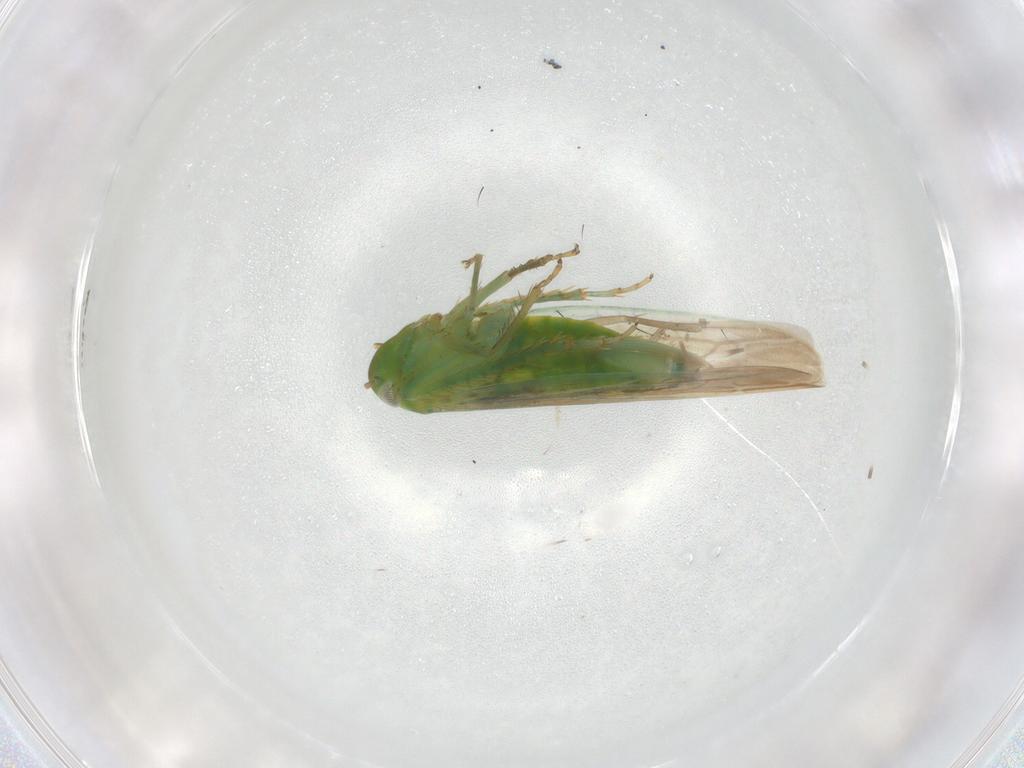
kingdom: Animalia
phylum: Arthropoda
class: Insecta
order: Hemiptera
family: Cicadellidae
